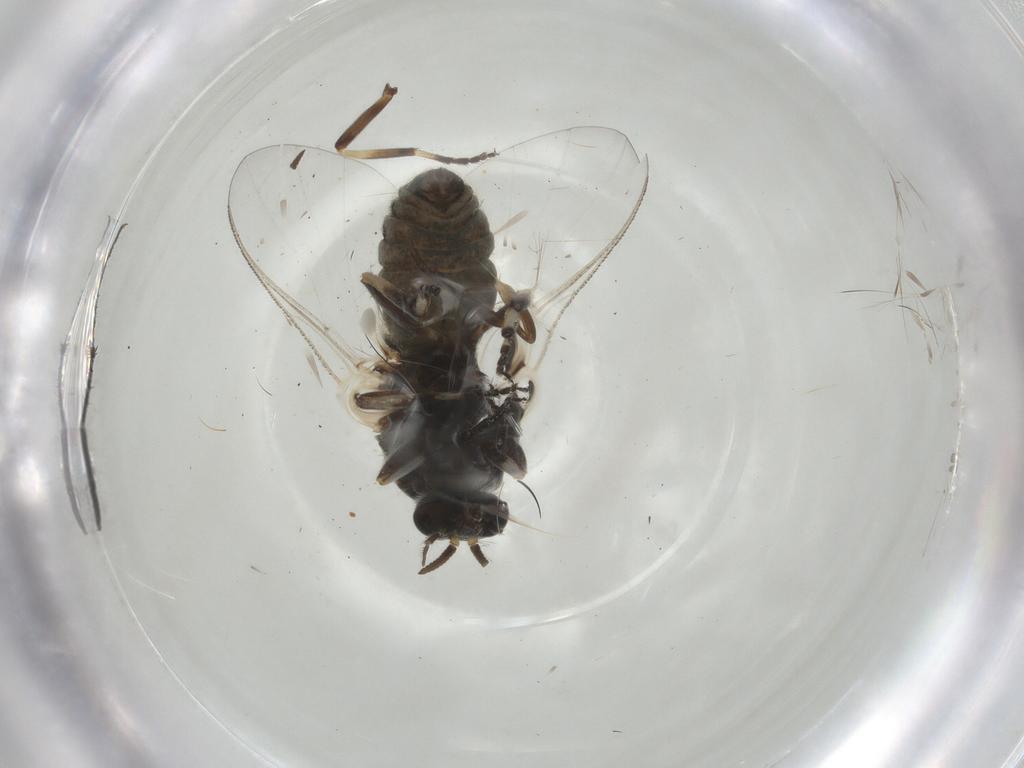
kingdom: Animalia
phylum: Arthropoda
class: Insecta
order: Diptera
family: Simuliidae
